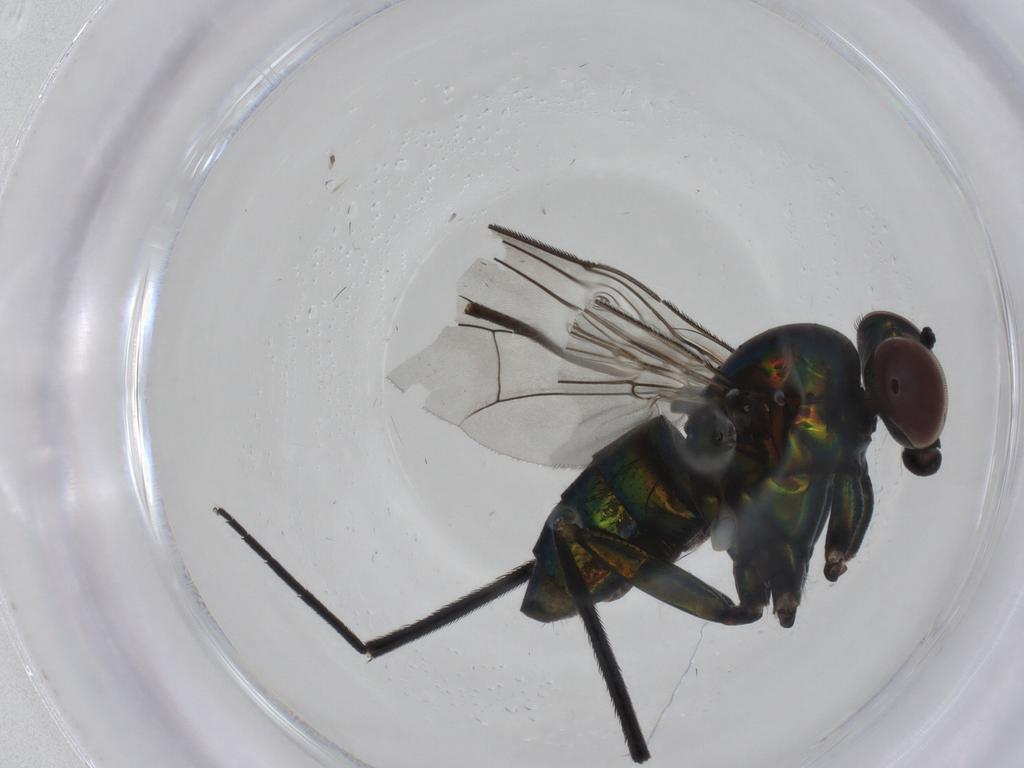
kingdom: Animalia
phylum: Arthropoda
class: Insecta
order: Diptera
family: Dolichopodidae
